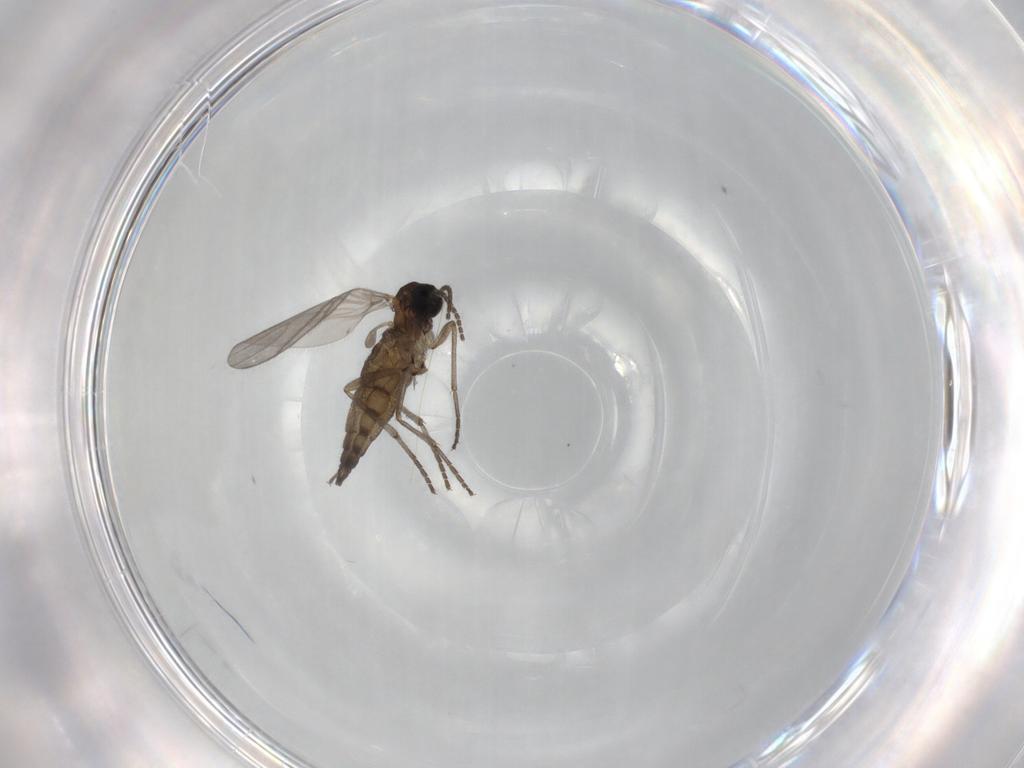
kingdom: Animalia
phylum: Arthropoda
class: Insecta
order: Diptera
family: Sciaridae
